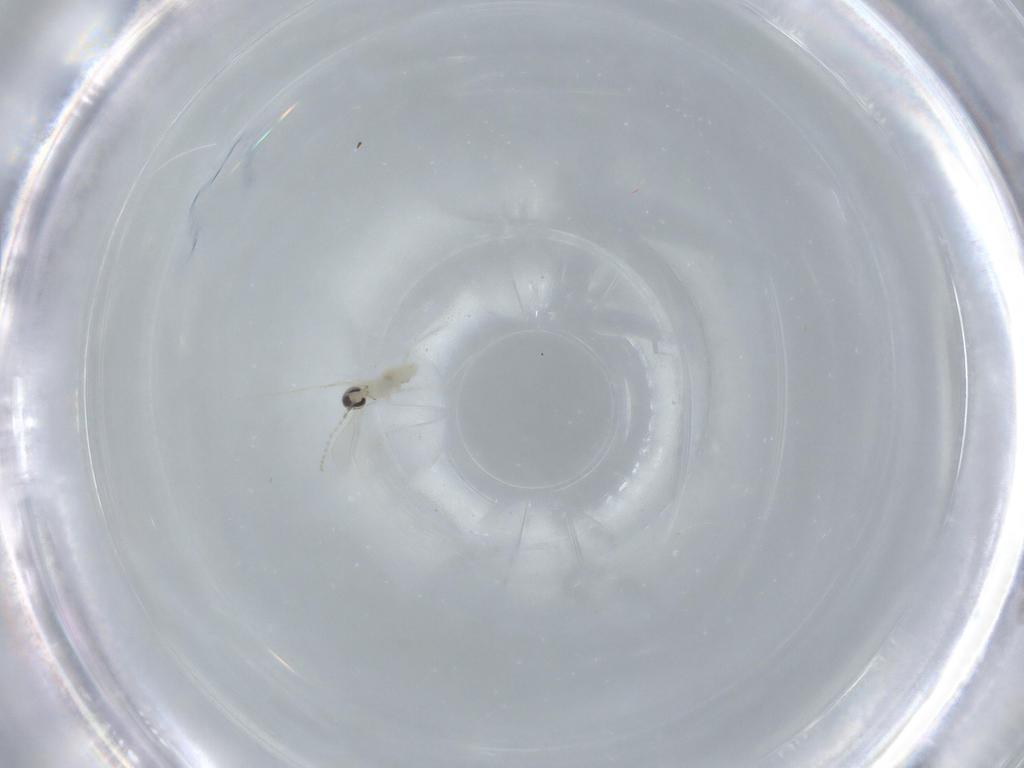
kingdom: Animalia
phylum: Arthropoda
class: Insecta
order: Diptera
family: Cecidomyiidae
